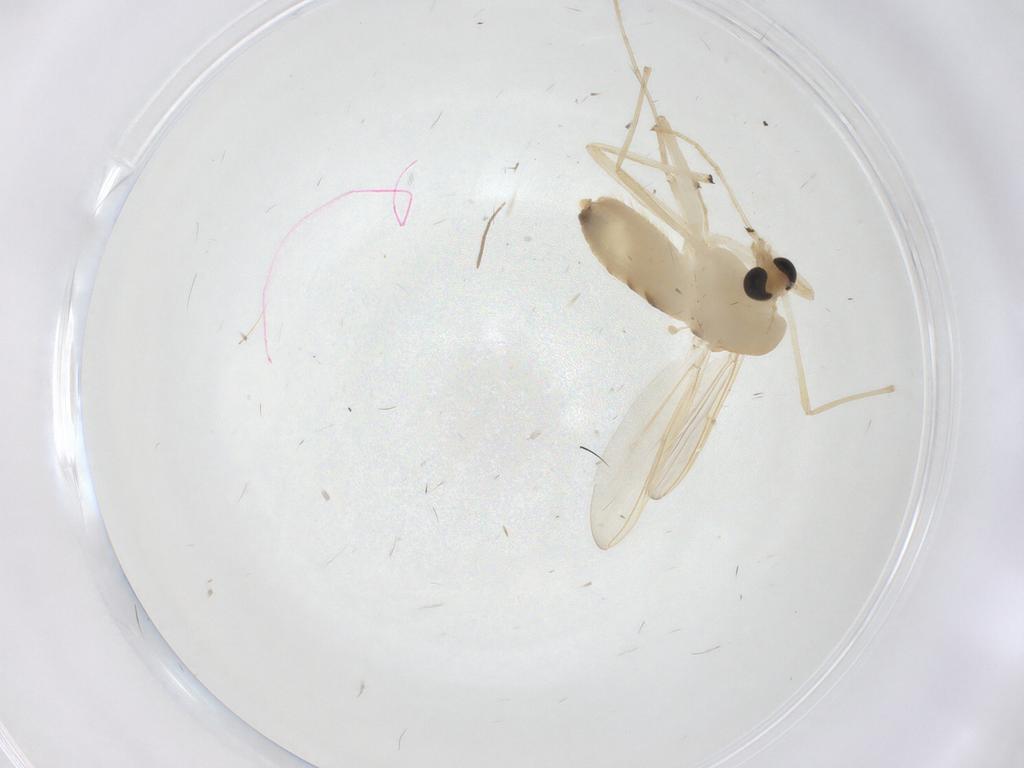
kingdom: Animalia
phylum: Arthropoda
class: Insecta
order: Diptera
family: Chironomidae
